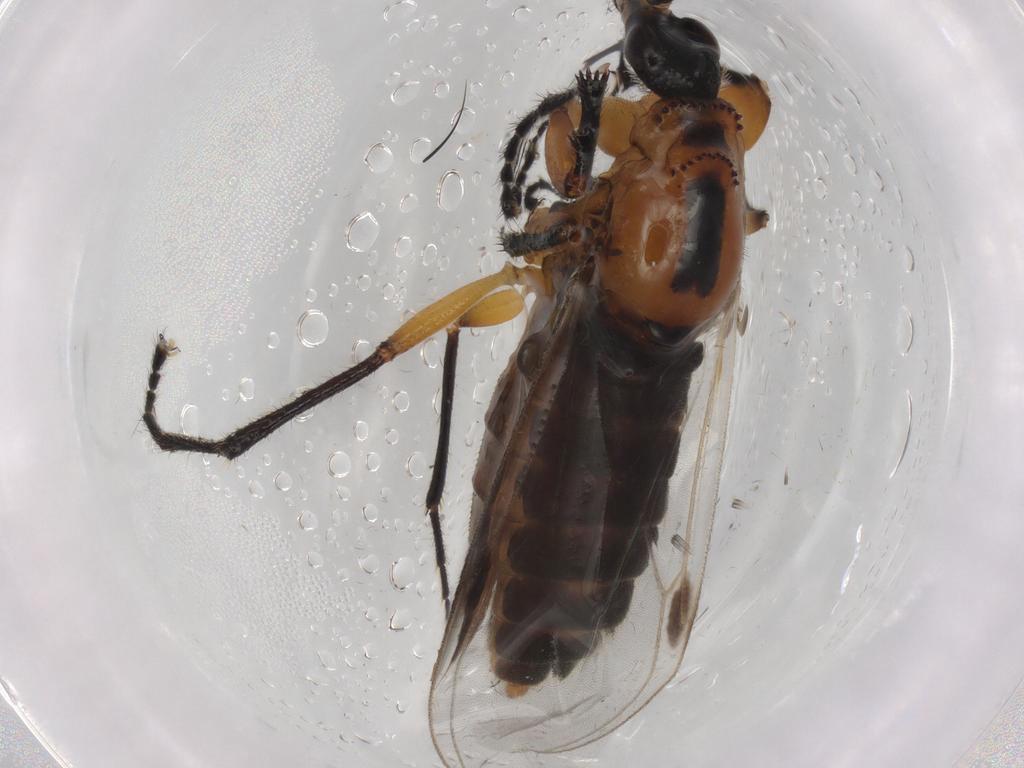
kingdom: Animalia
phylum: Arthropoda
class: Insecta
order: Diptera
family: Bibionidae
